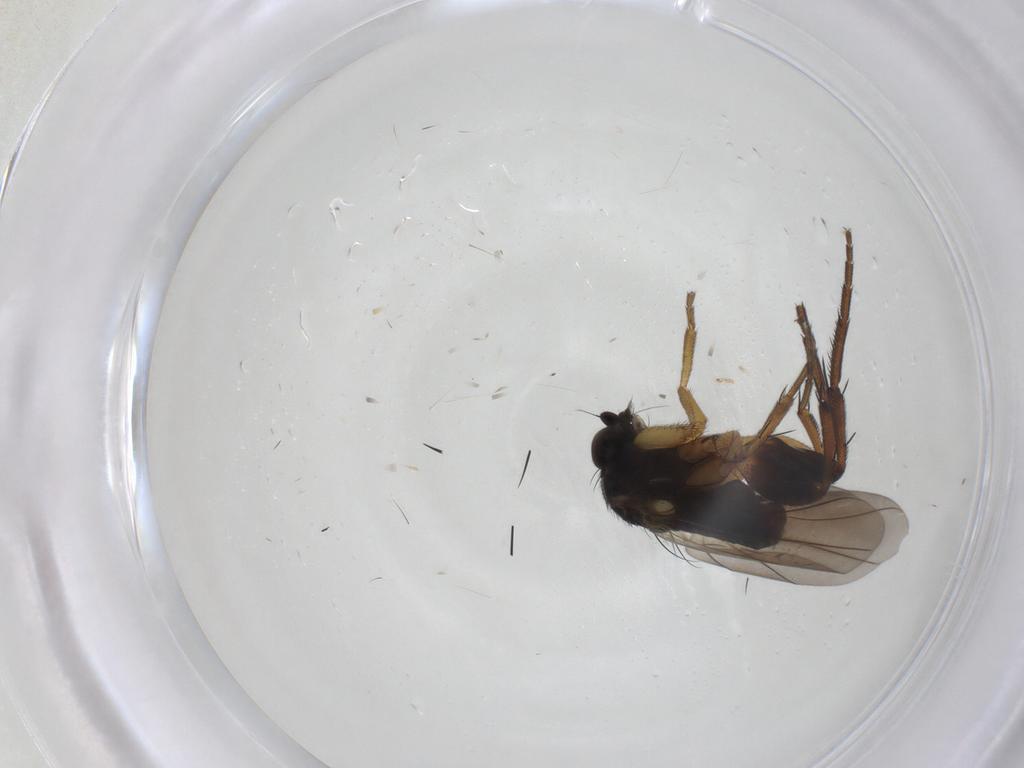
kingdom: Animalia
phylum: Arthropoda
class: Insecta
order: Diptera
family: Phoridae
